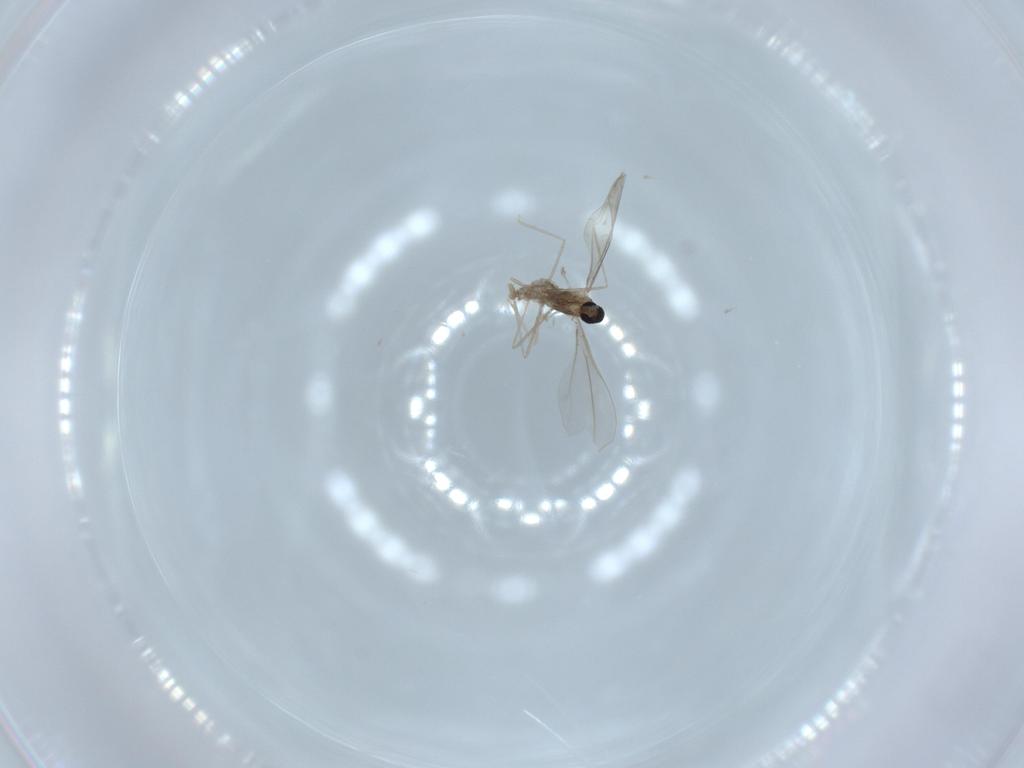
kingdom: Animalia
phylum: Arthropoda
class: Insecta
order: Diptera
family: Cecidomyiidae
